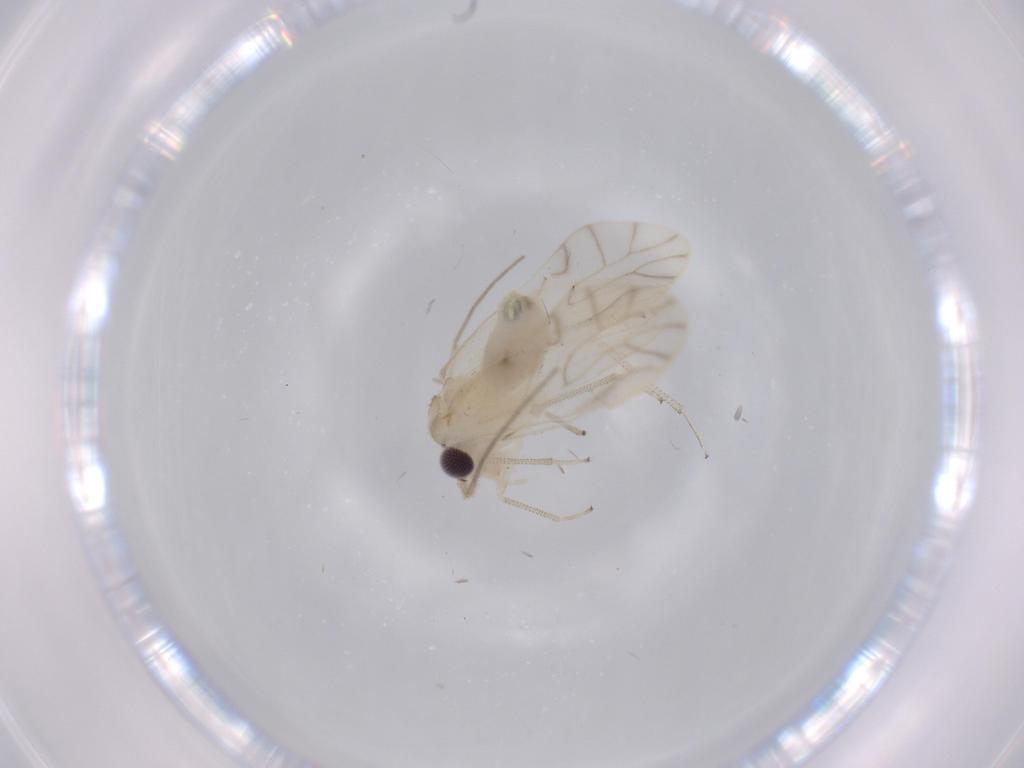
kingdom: Animalia
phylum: Arthropoda
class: Insecta
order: Psocodea
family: Caeciliusidae
